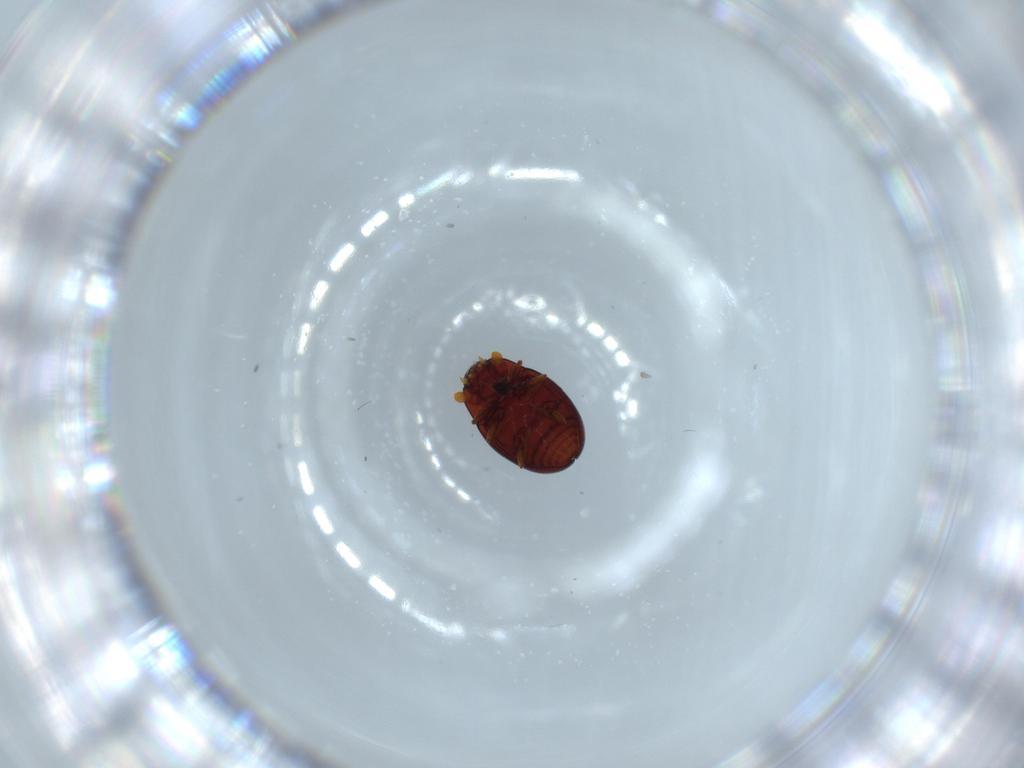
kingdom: Animalia
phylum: Arthropoda
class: Insecta
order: Coleoptera
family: Cerylonidae
